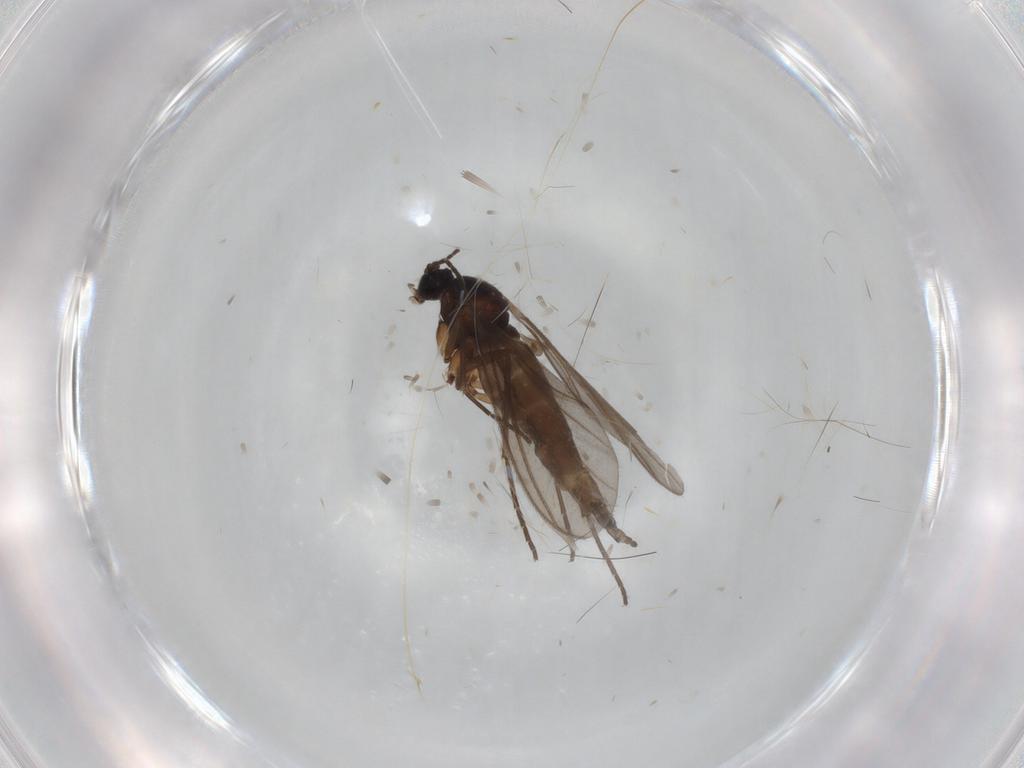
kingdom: Animalia
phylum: Arthropoda
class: Insecta
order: Diptera
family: Sciaridae
